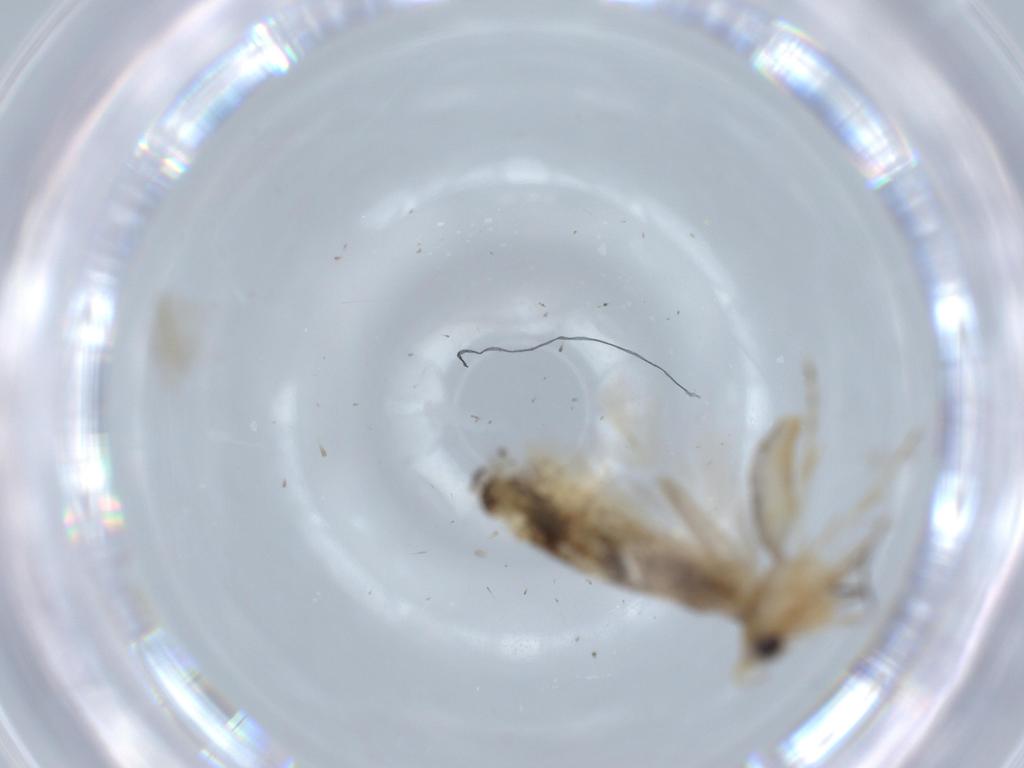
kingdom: Animalia
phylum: Arthropoda
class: Insecta
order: Lepidoptera
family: Bucculatricidae
